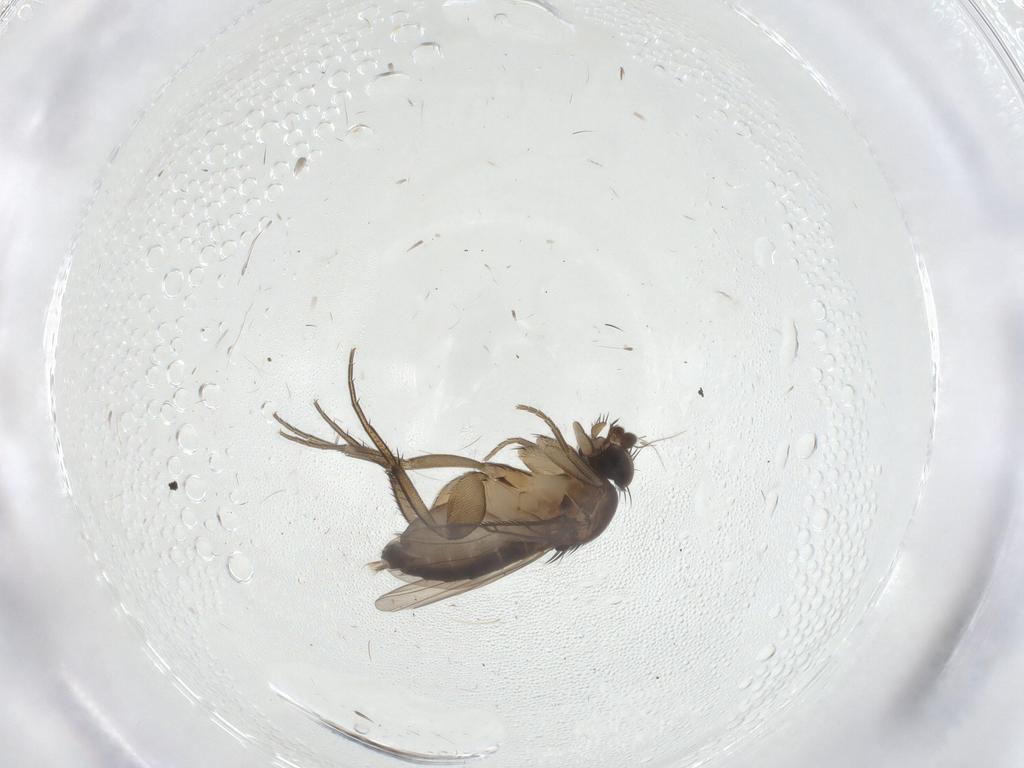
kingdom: Animalia
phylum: Arthropoda
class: Insecta
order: Diptera
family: Phoridae
